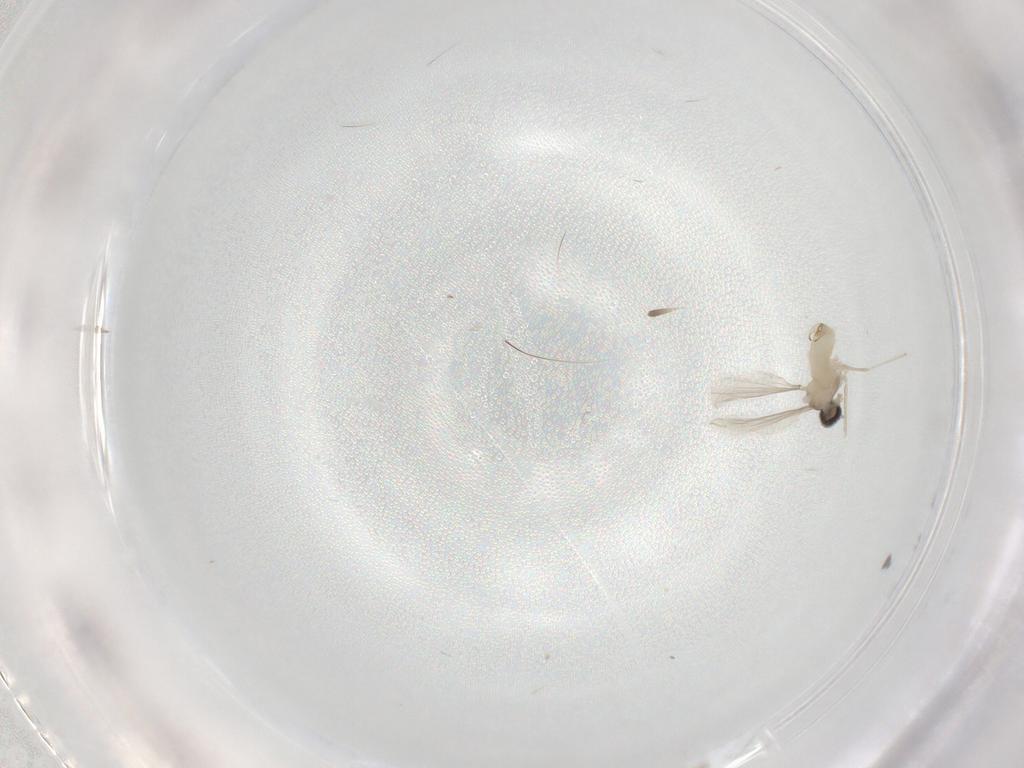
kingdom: Animalia
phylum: Arthropoda
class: Insecta
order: Diptera
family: Cecidomyiidae
